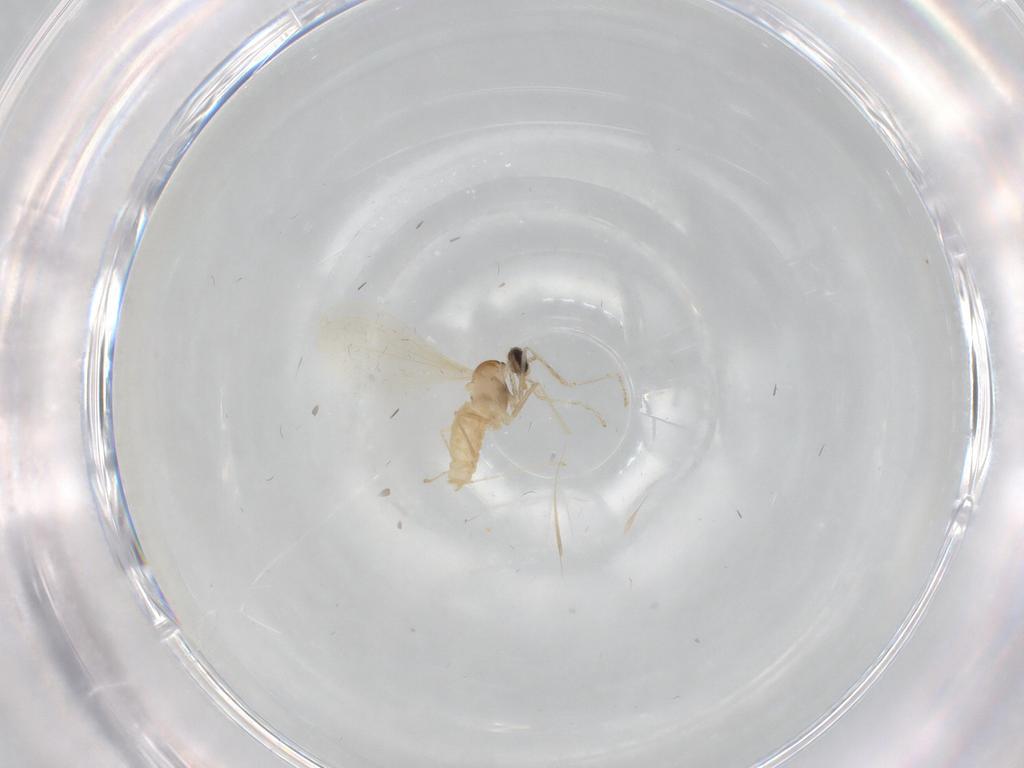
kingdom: Animalia
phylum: Arthropoda
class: Insecta
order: Diptera
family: Cecidomyiidae
